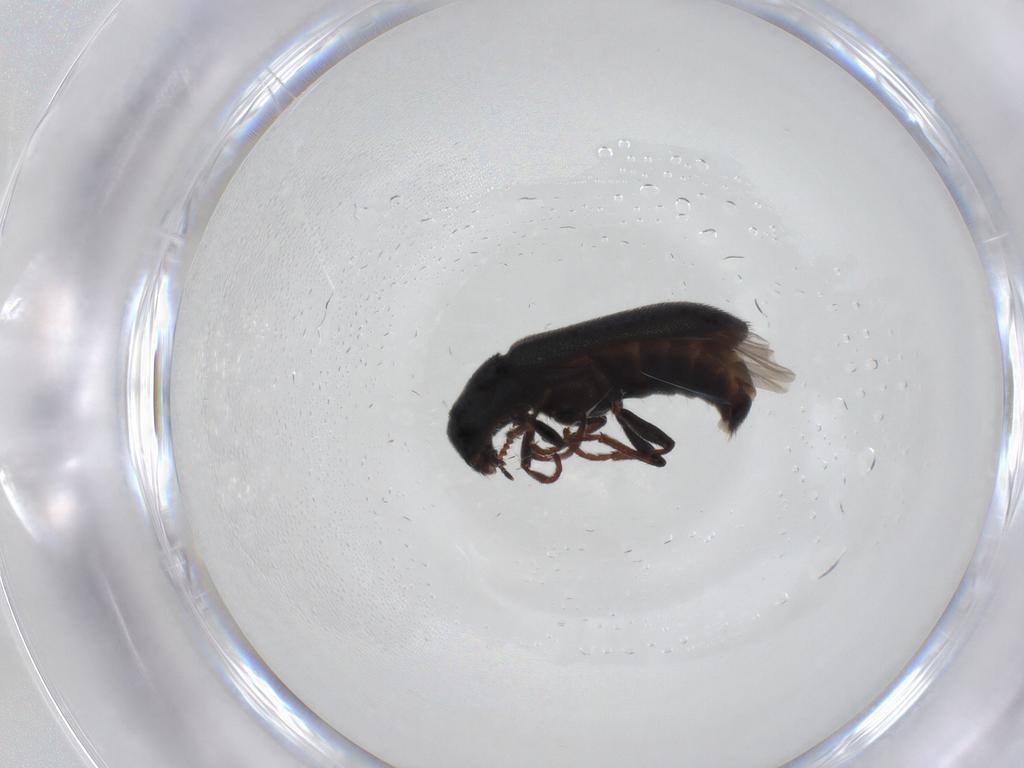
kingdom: Animalia
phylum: Arthropoda
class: Insecta
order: Coleoptera
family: Melyridae
